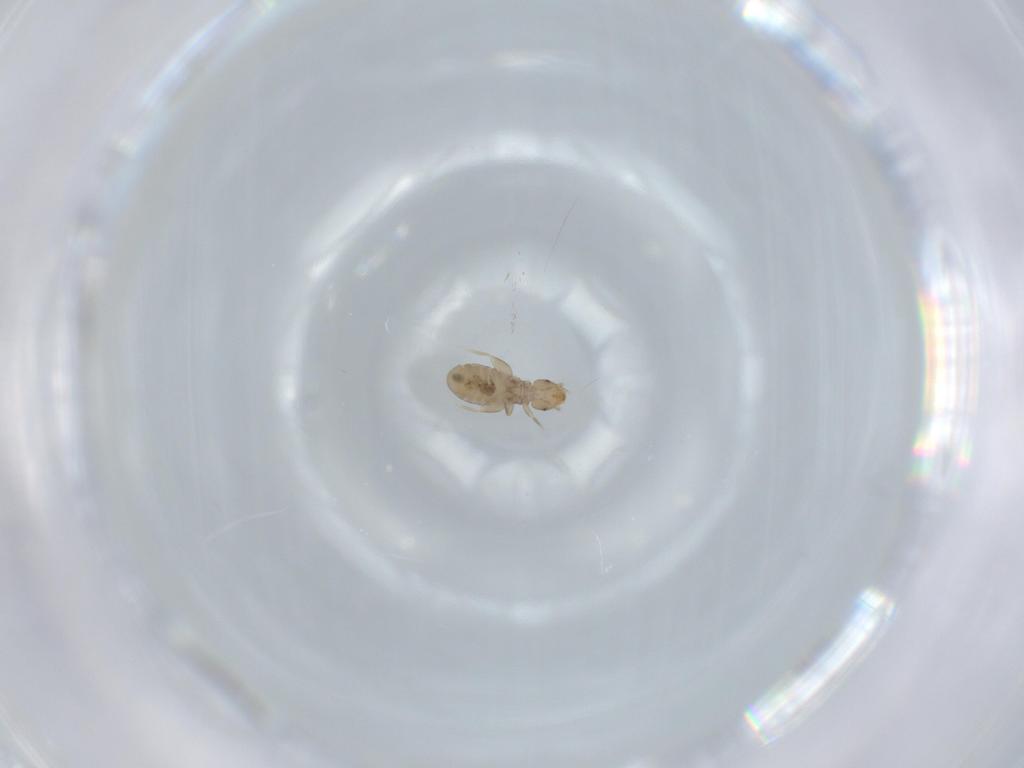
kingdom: Animalia
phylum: Arthropoda
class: Insecta
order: Psocodea
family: Liposcelididae
